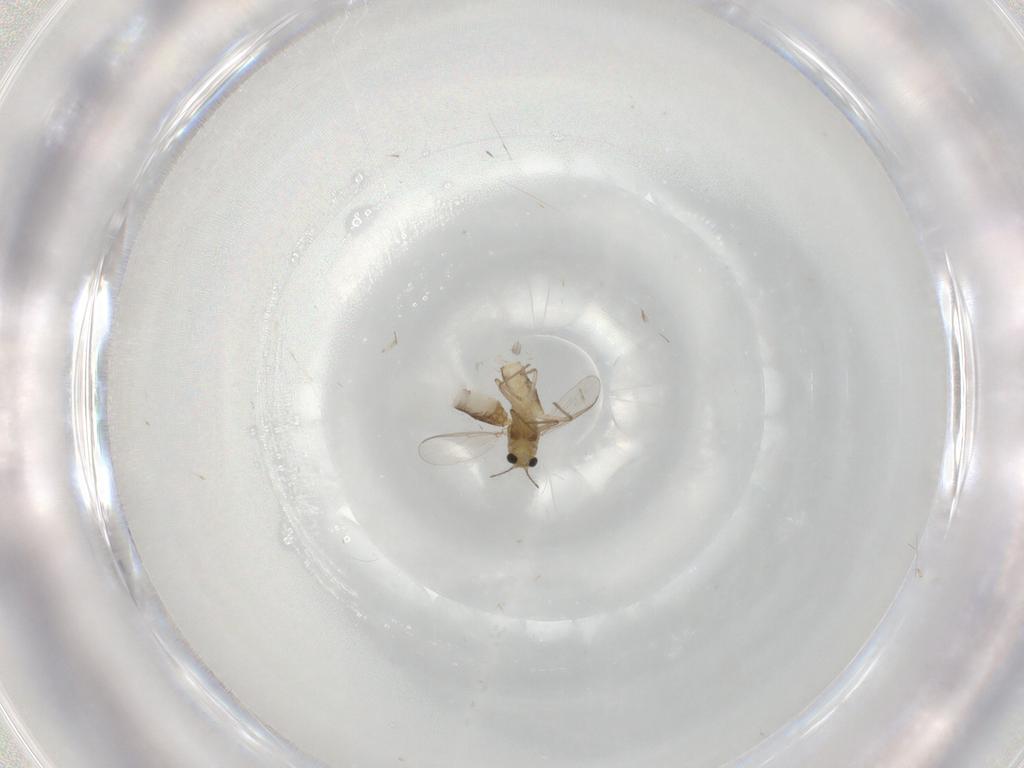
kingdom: Animalia
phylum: Arthropoda
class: Insecta
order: Diptera
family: Chironomidae
